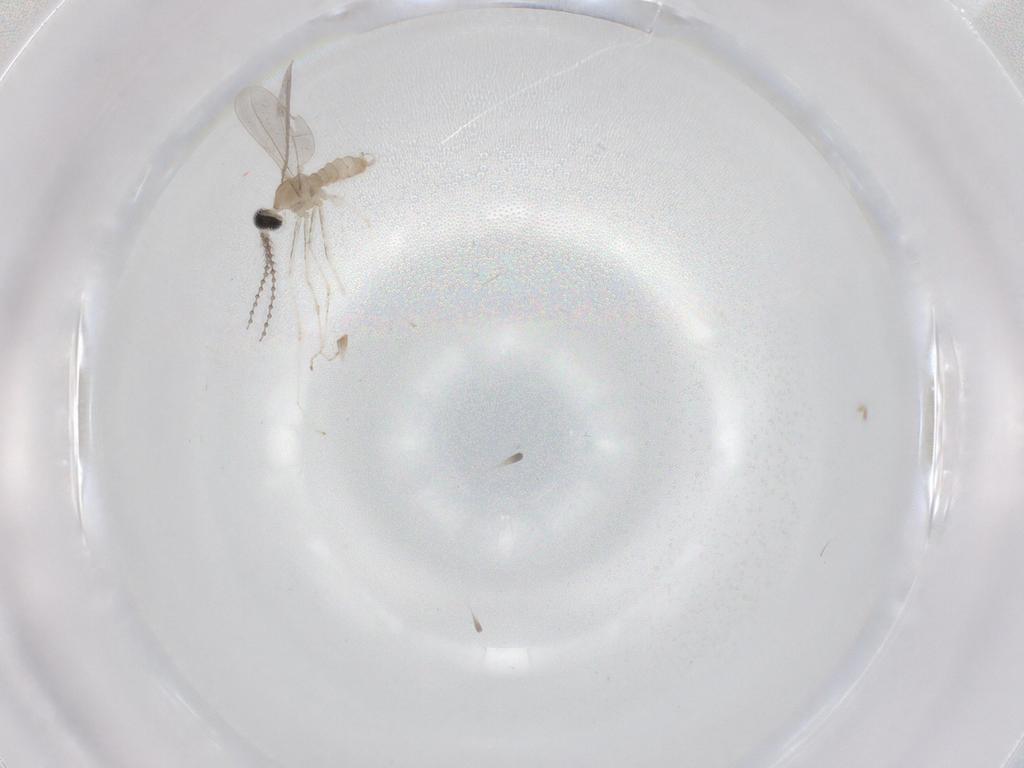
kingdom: Animalia
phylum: Arthropoda
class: Insecta
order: Diptera
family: Cecidomyiidae
